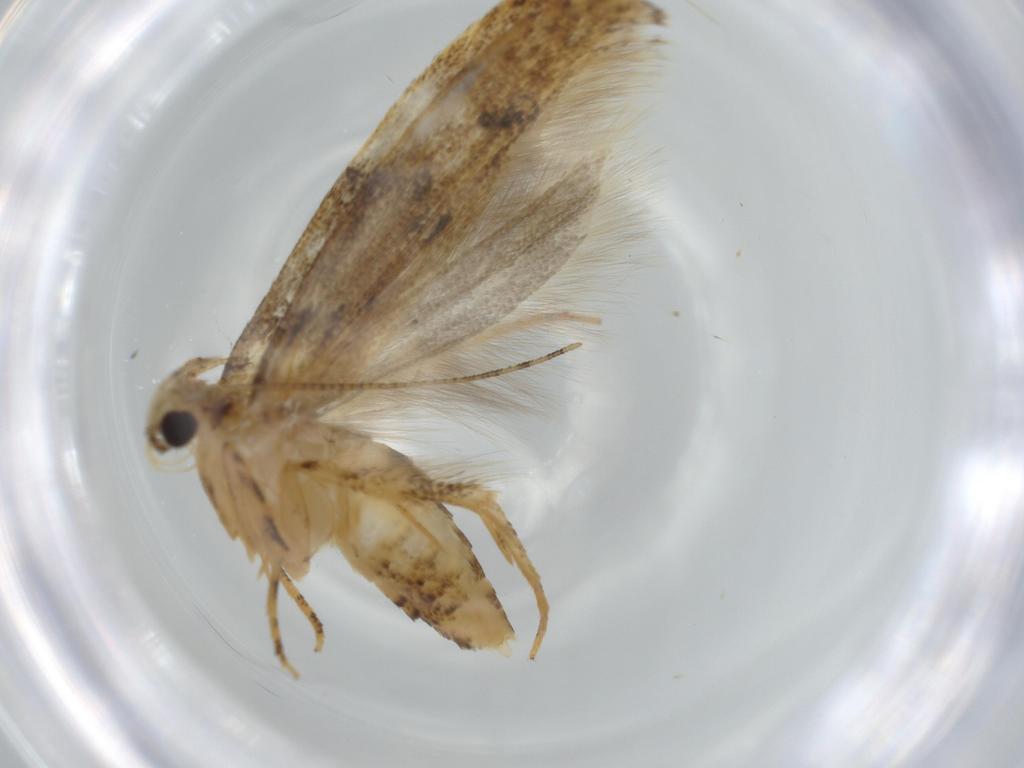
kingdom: Animalia
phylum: Arthropoda
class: Insecta
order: Lepidoptera
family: Gelechiidae
